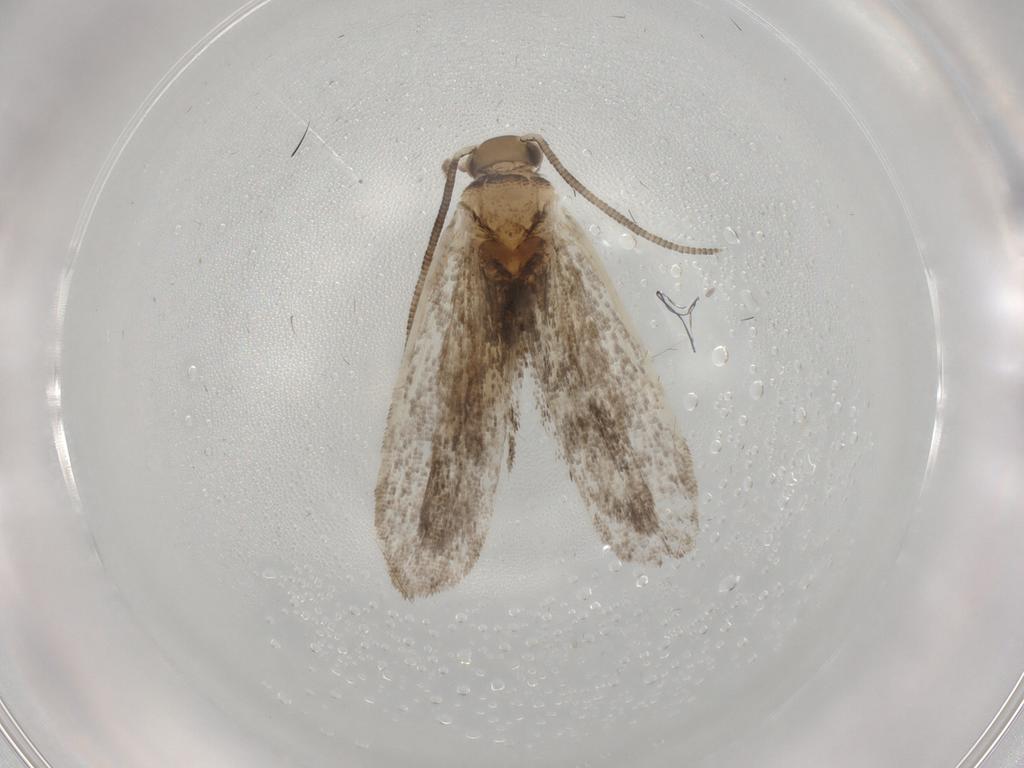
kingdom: Animalia
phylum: Arthropoda
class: Insecta
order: Lepidoptera
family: Dryadaulidae
